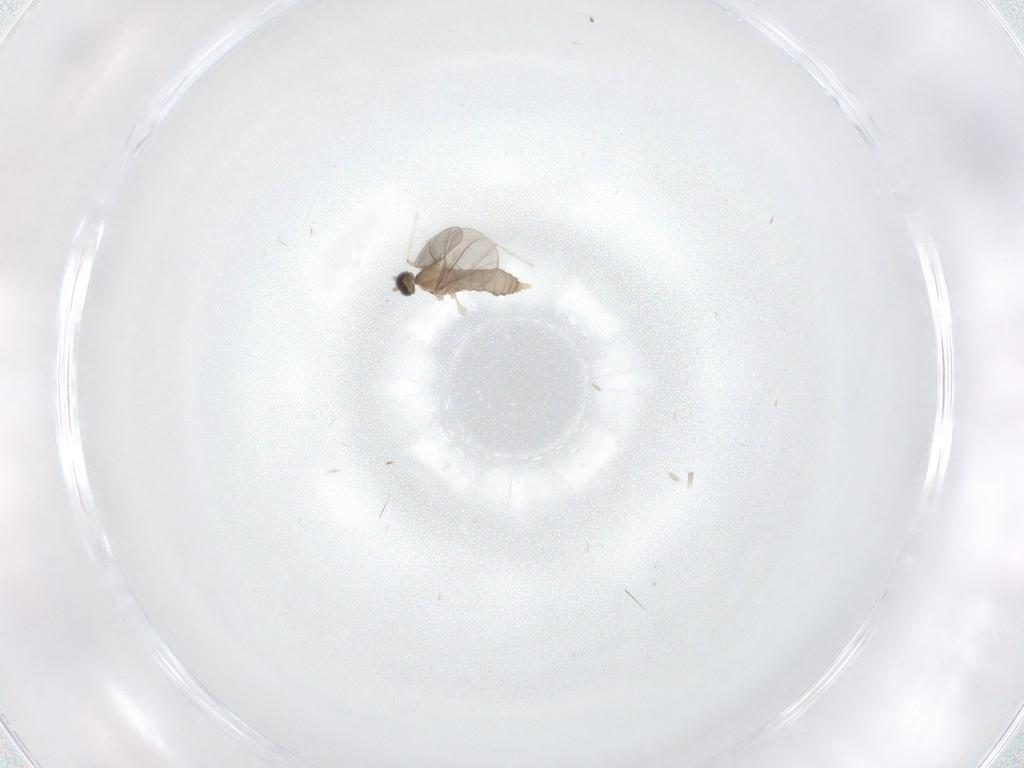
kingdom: Animalia
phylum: Arthropoda
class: Insecta
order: Diptera
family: Cecidomyiidae
